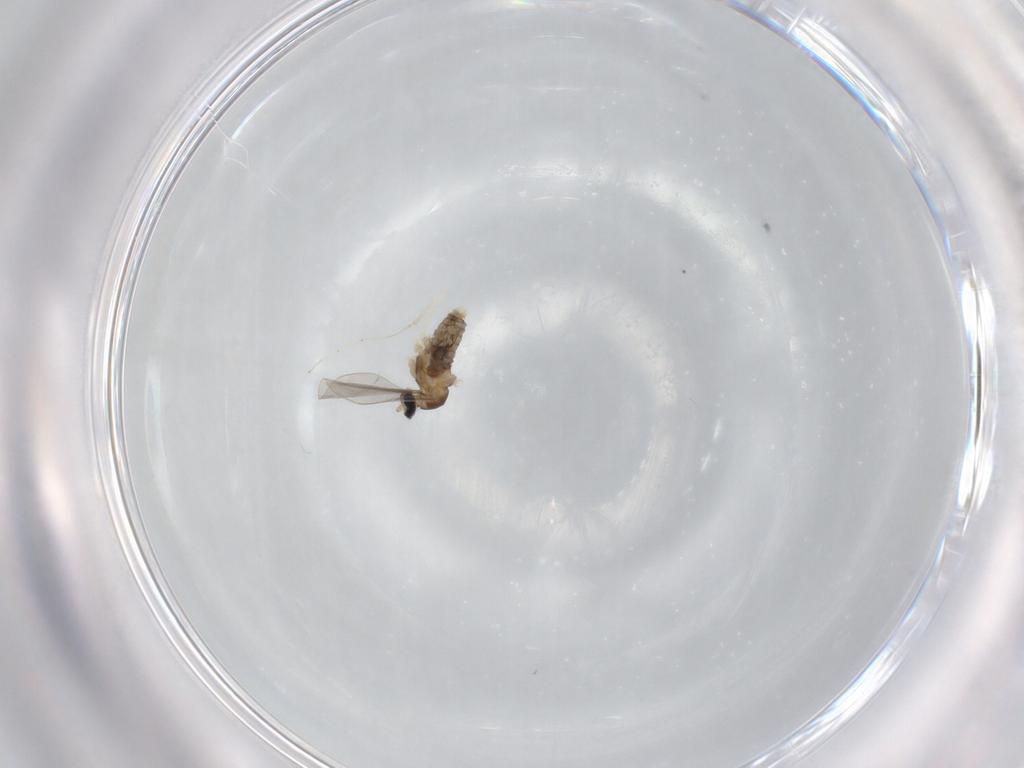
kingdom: Animalia
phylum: Arthropoda
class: Insecta
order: Diptera
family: Cecidomyiidae
